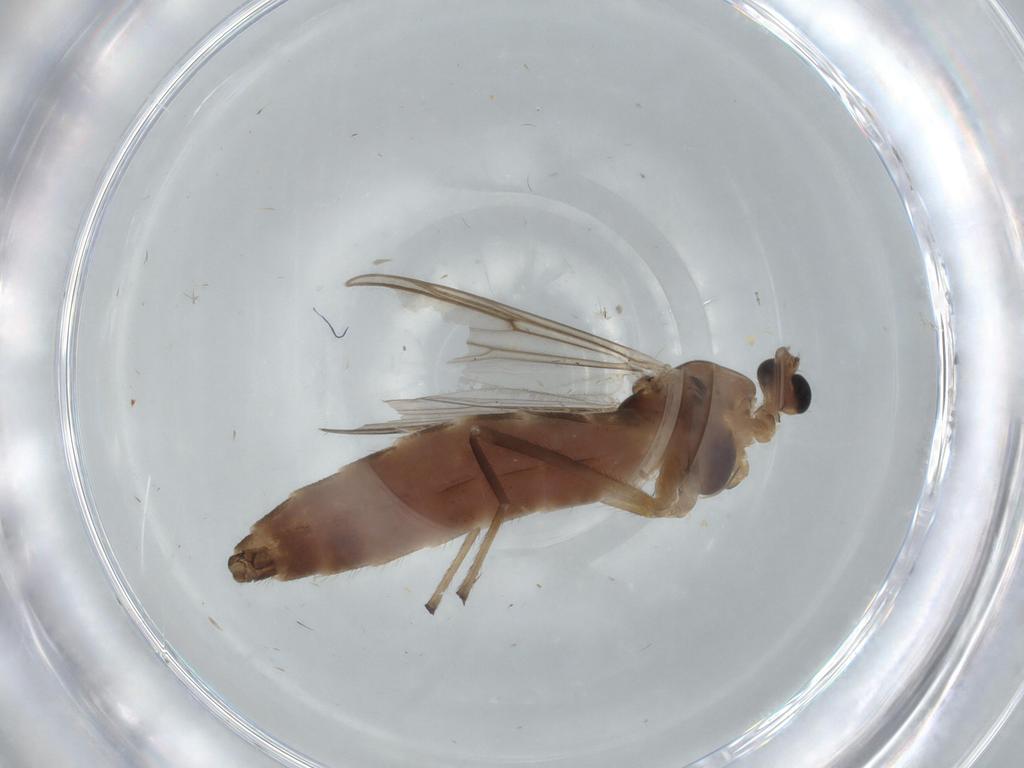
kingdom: Animalia
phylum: Arthropoda
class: Insecta
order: Diptera
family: Chironomidae
